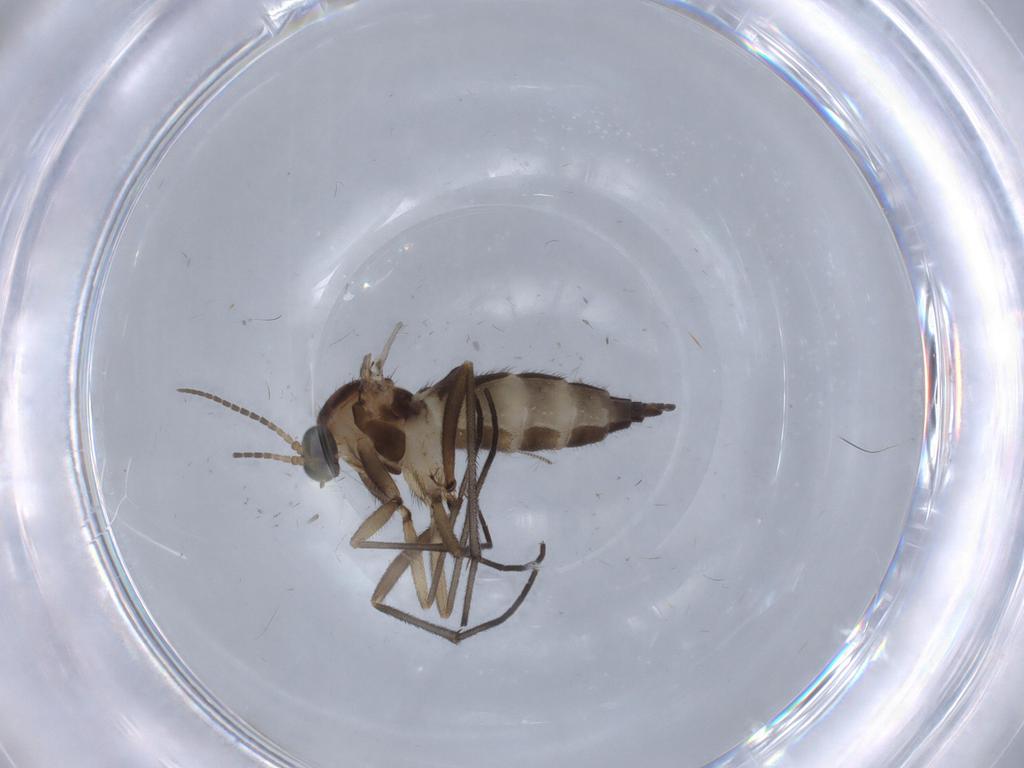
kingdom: Animalia
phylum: Arthropoda
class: Insecta
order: Diptera
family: Sciaridae
